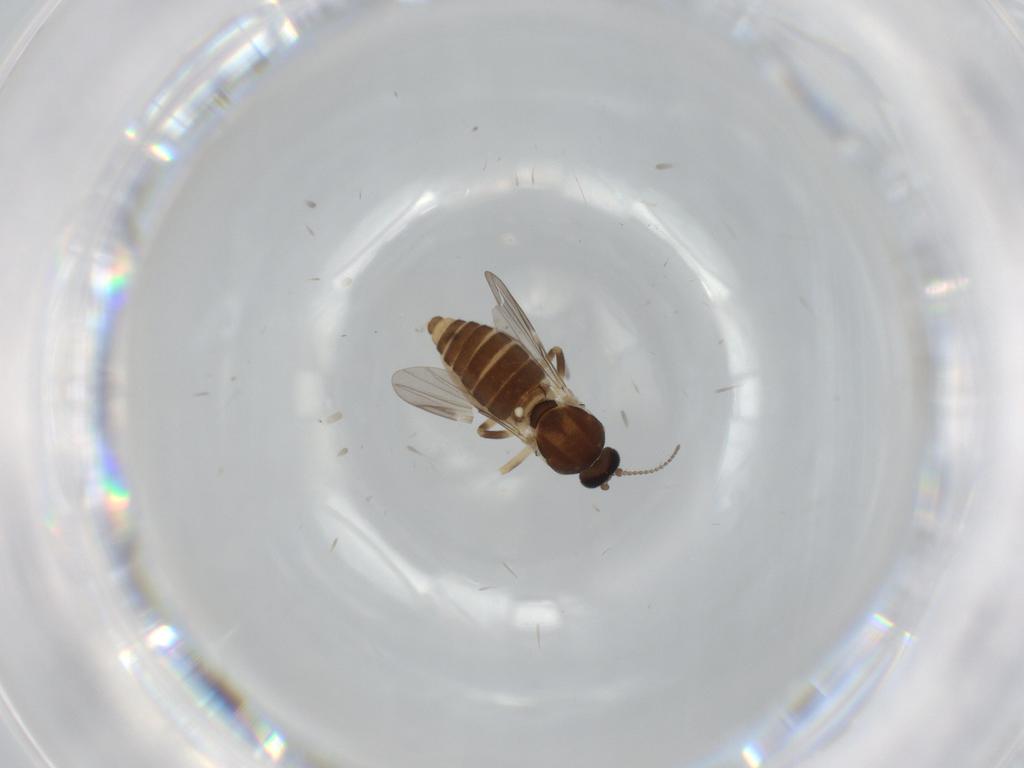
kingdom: Animalia
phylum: Arthropoda
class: Insecta
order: Diptera
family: Ceratopogonidae
